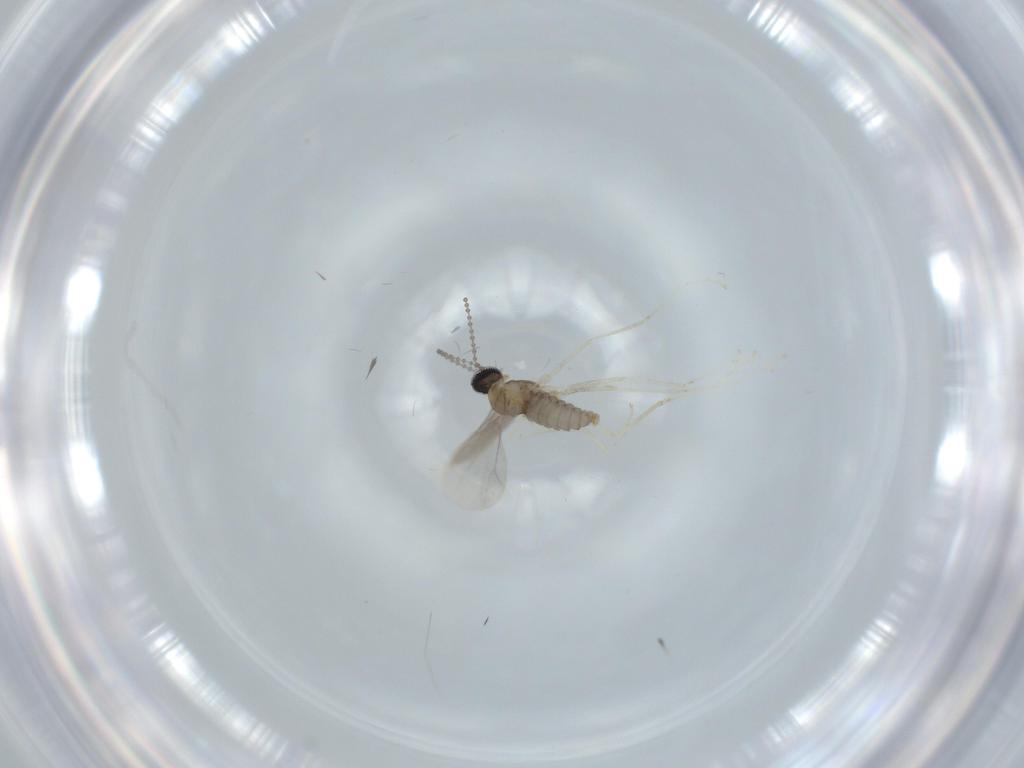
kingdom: Animalia
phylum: Arthropoda
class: Insecta
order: Diptera
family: Cecidomyiidae
